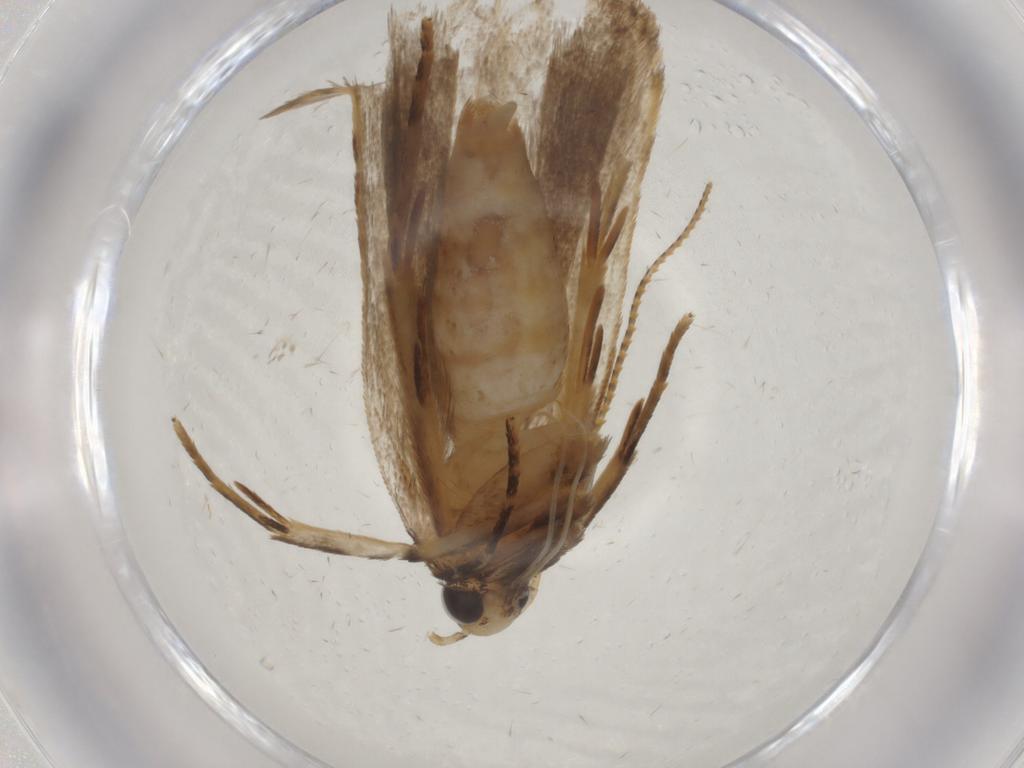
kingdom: Animalia
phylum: Arthropoda
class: Insecta
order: Lepidoptera
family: Gelechiidae
